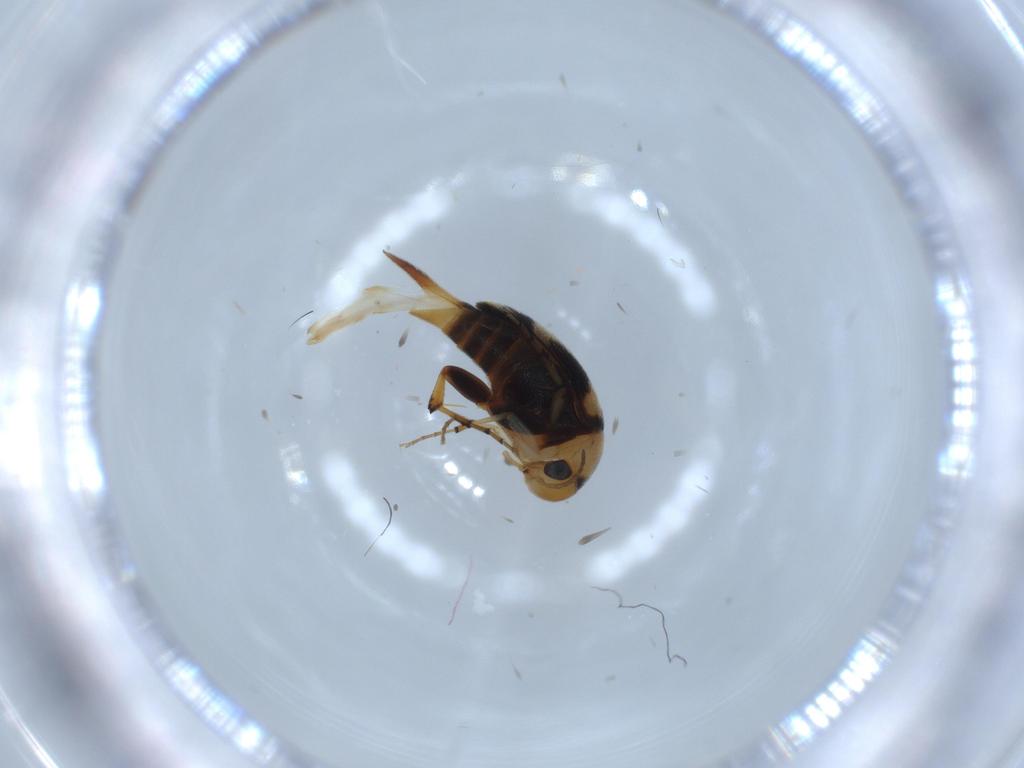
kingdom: Animalia
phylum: Arthropoda
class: Insecta
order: Coleoptera
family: Mordellidae
